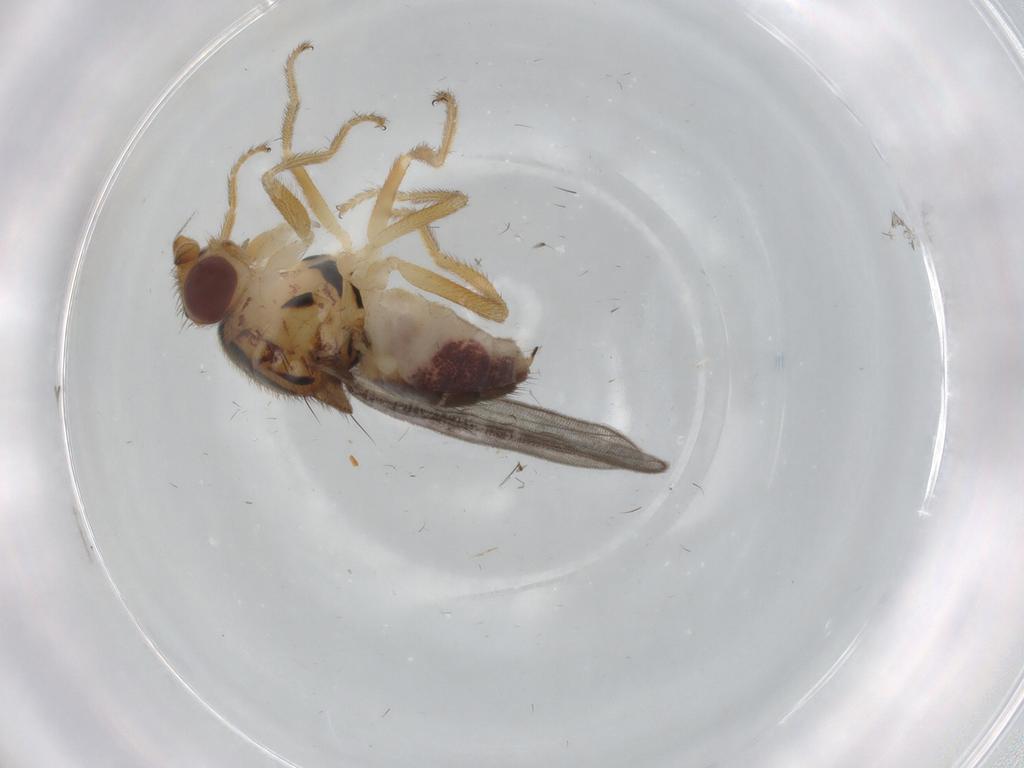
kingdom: Animalia
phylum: Arthropoda
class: Insecta
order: Diptera
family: Chloropidae
